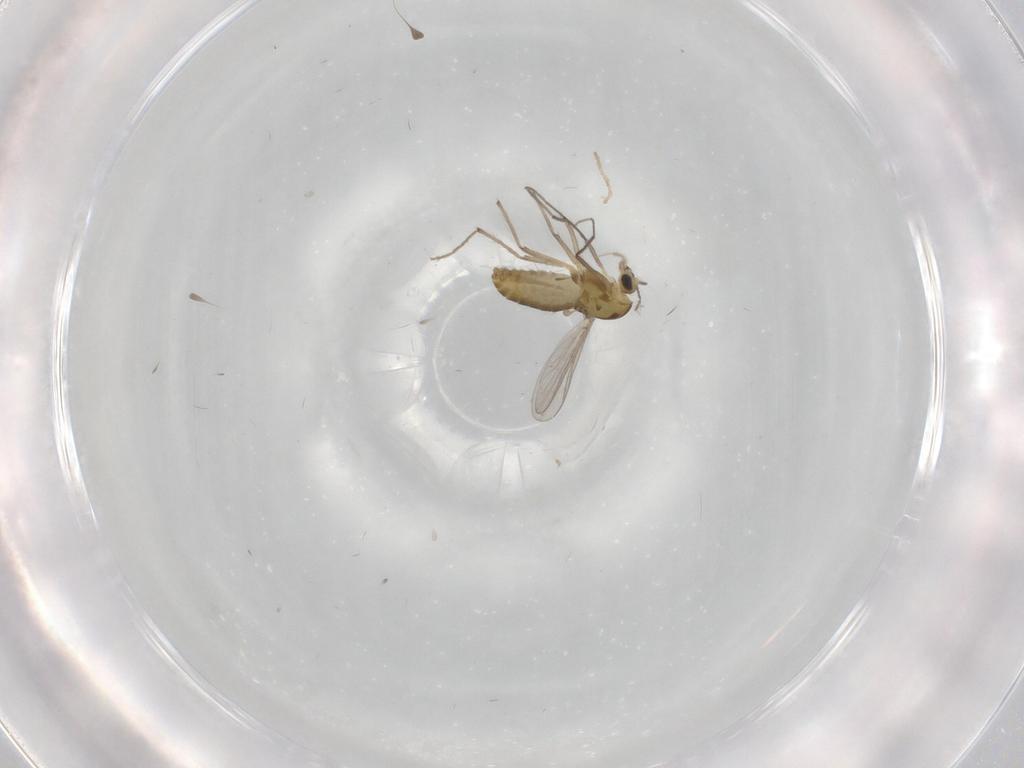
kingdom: Animalia
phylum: Arthropoda
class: Insecta
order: Diptera
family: Chironomidae
